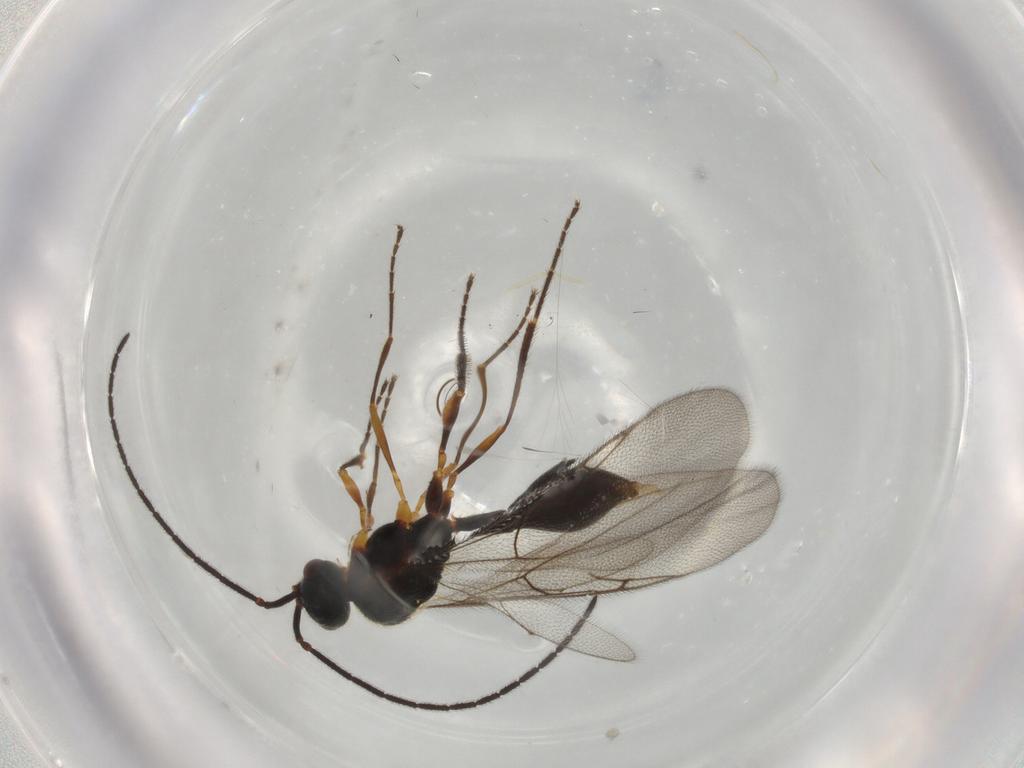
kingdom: Animalia
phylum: Arthropoda
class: Insecta
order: Hymenoptera
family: Diapriidae
